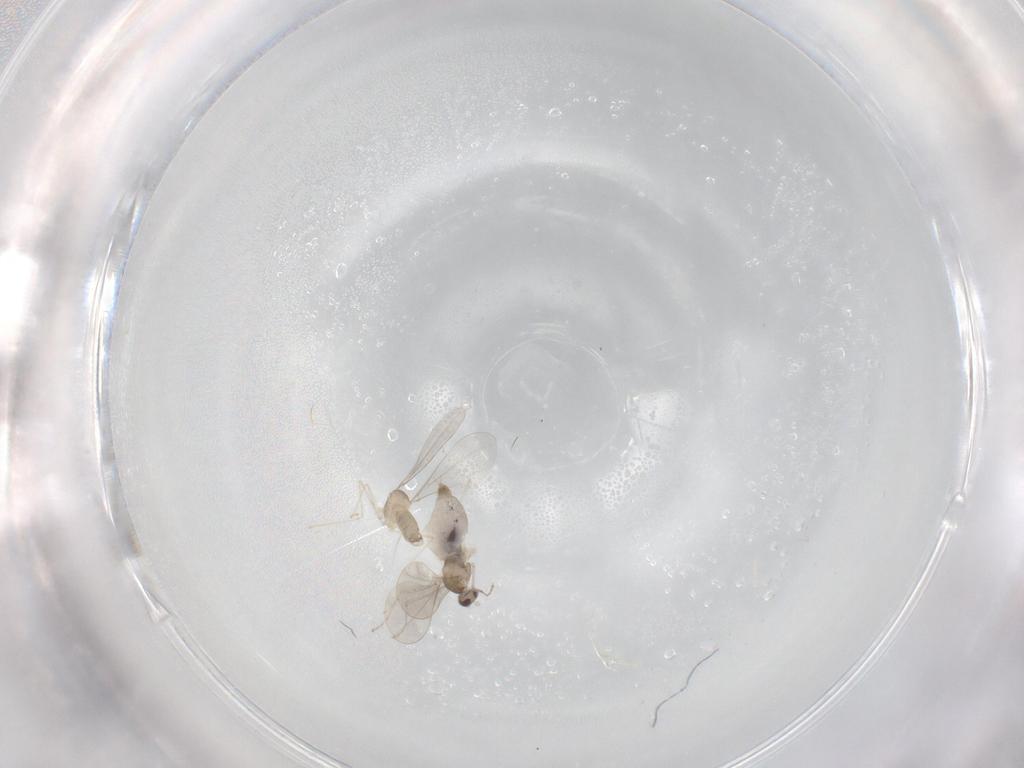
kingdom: Animalia
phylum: Arthropoda
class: Insecta
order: Diptera
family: Cecidomyiidae
